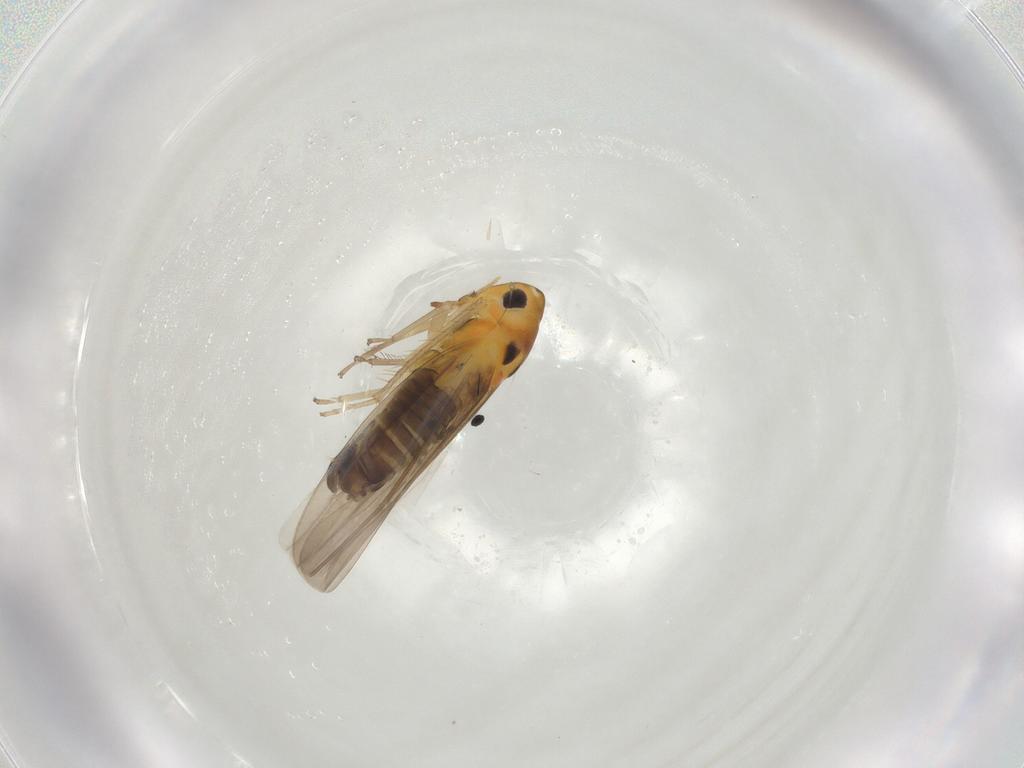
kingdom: Animalia
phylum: Arthropoda
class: Insecta
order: Hemiptera
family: Cicadellidae
